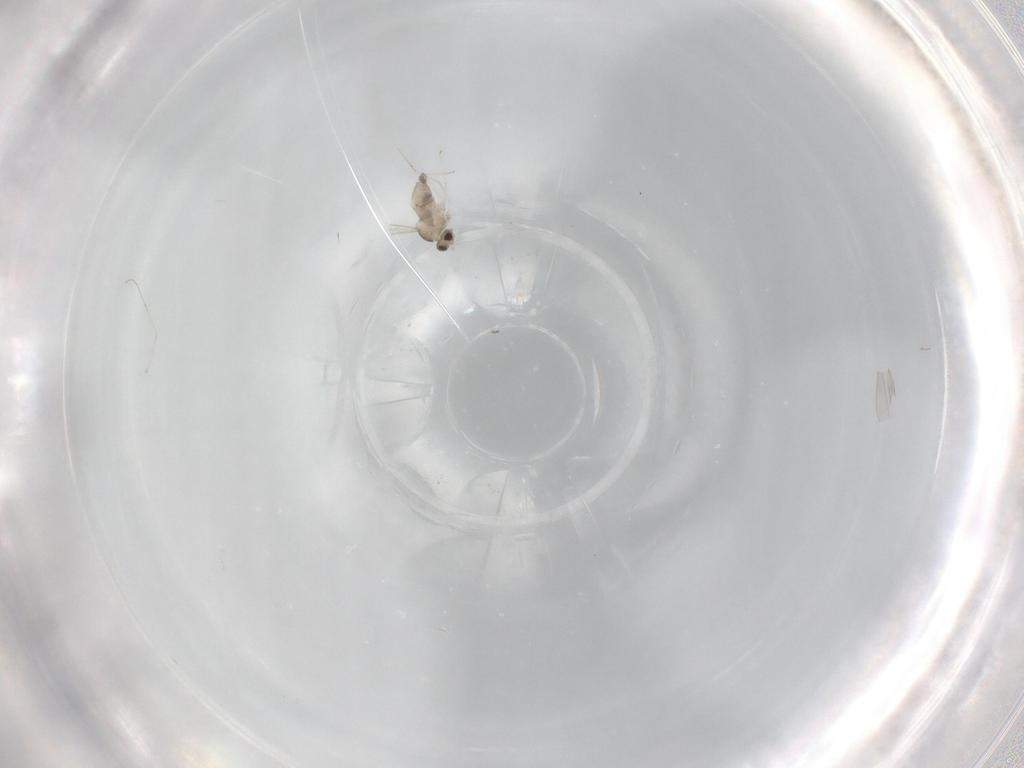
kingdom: Animalia
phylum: Arthropoda
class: Insecta
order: Diptera
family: Cecidomyiidae
